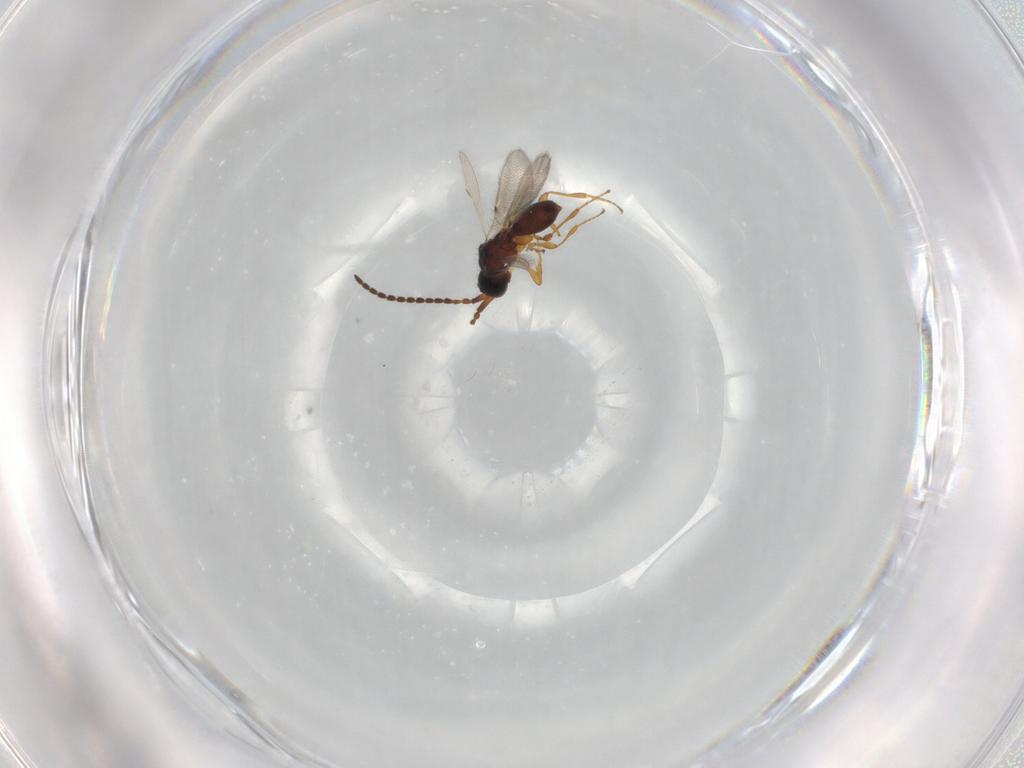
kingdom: Animalia
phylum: Arthropoda
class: Insecta
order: Hymenoptera
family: Diapriidae
